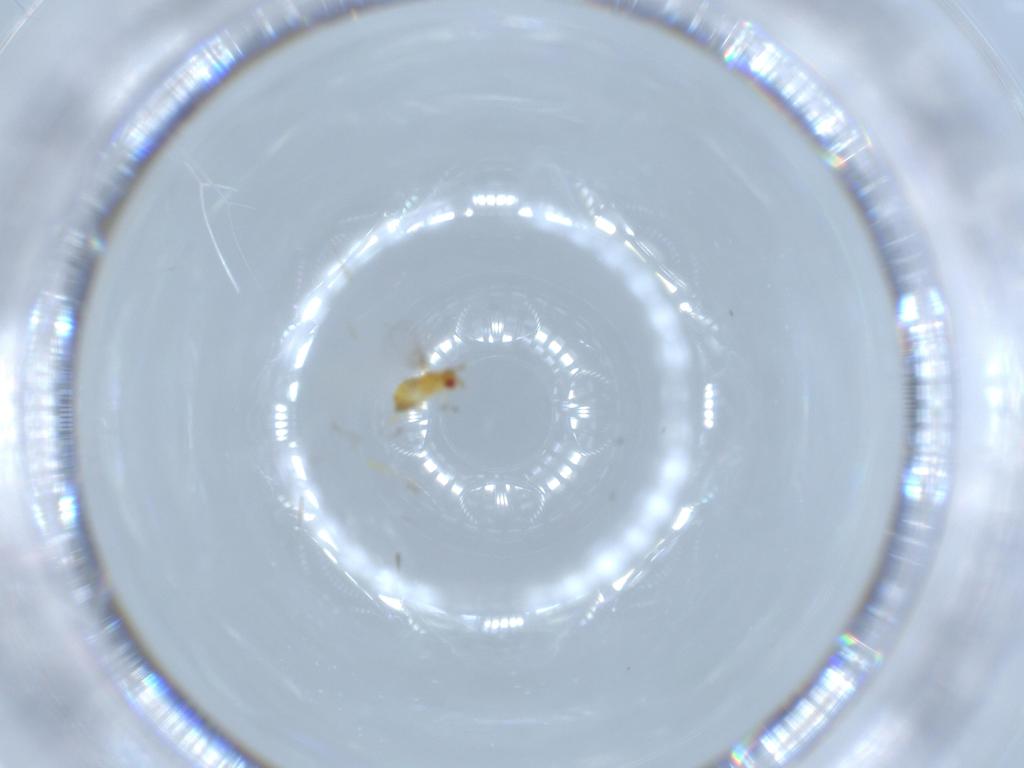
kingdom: Animalia
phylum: Arthropoda
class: Insecta
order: Hymenoptera
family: Trichogrammatidae
